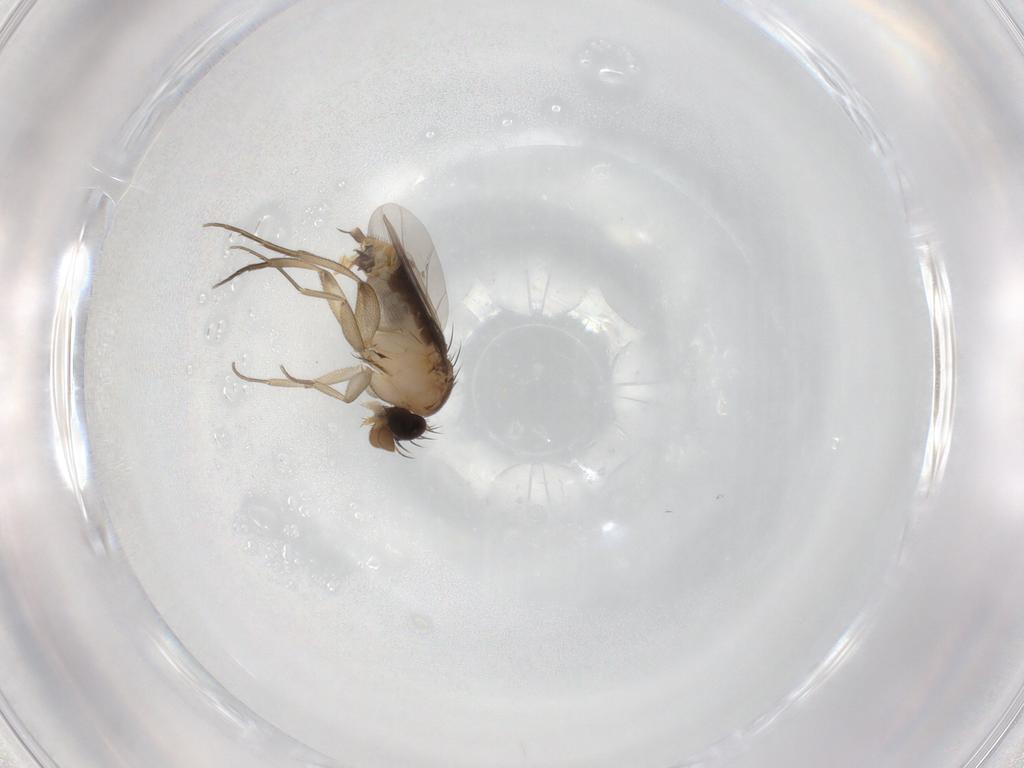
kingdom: Animalia
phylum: Arthropoda
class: Insecta
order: Diptera
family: Phoridae
